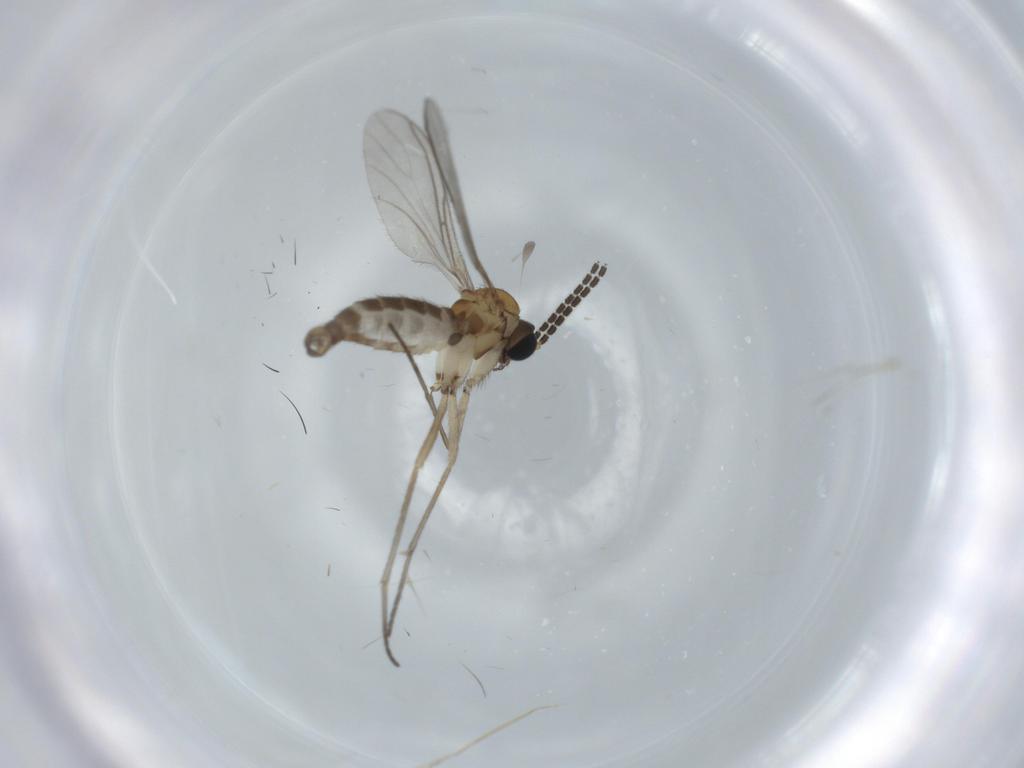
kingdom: Animalia
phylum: Arthropoda
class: Insecta
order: Diptera
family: Sciaridae
